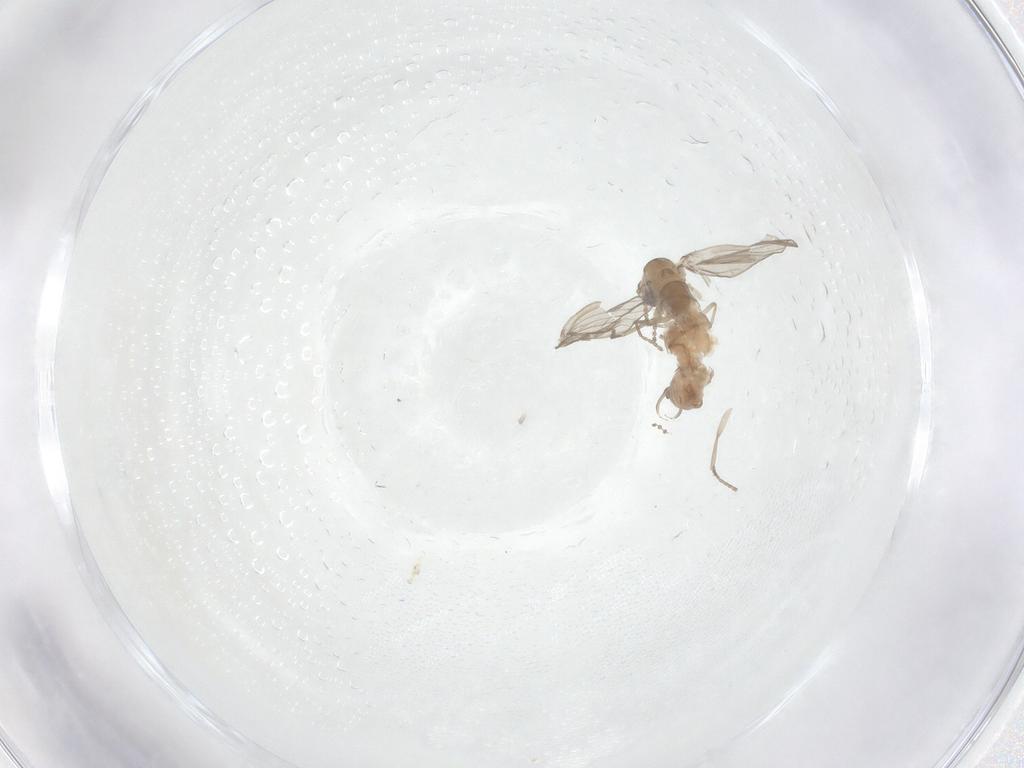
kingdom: Animalia
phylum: Arthropoda
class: Insecta
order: Diptera
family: Psychodidae
